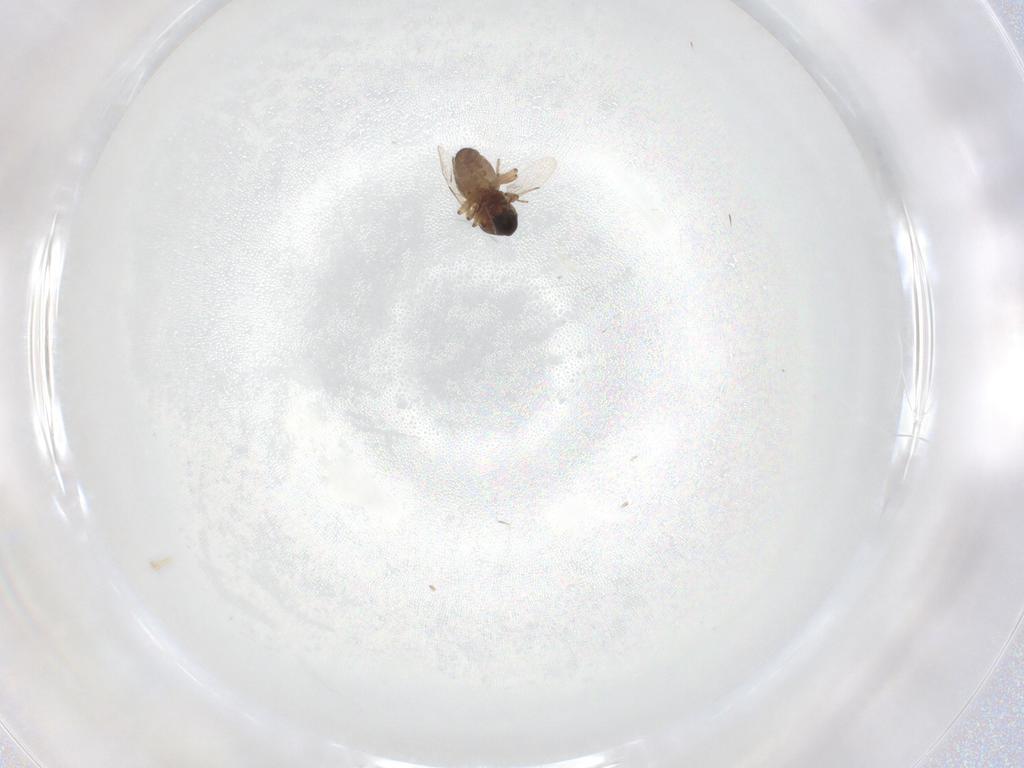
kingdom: Animalia
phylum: Arthropoda
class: Insecta
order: Diptera
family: Ceratopogonidae
